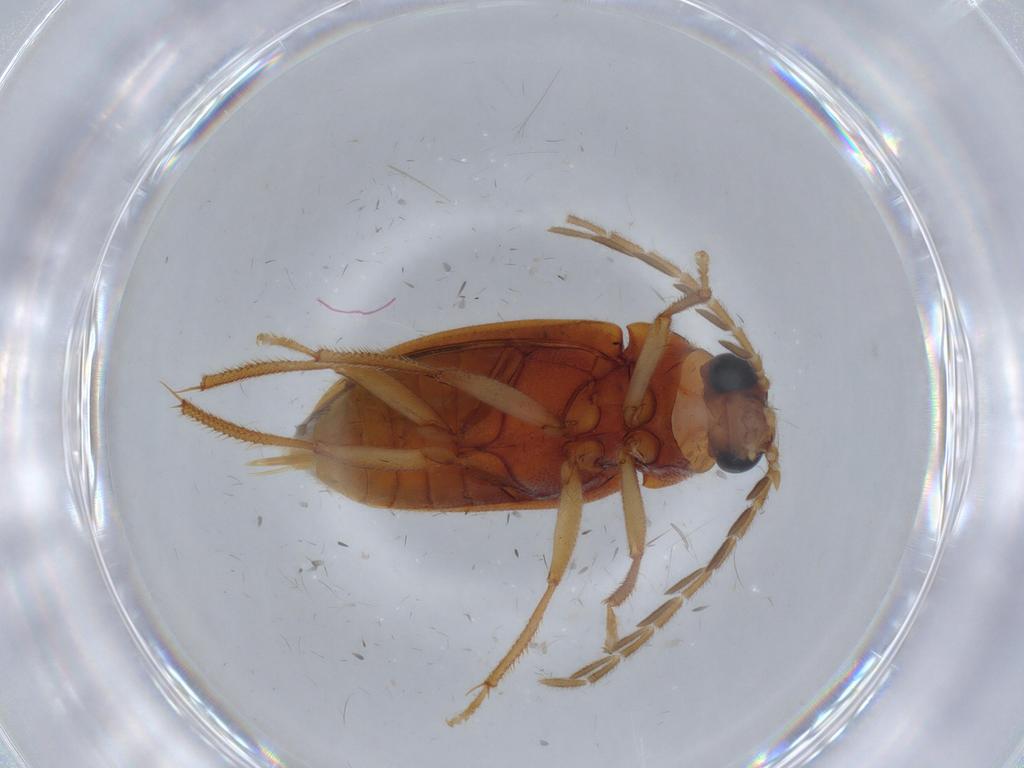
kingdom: Animalia
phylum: Arthropoda
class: Insecta
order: Coleoptera
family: Ptilodactylidae
